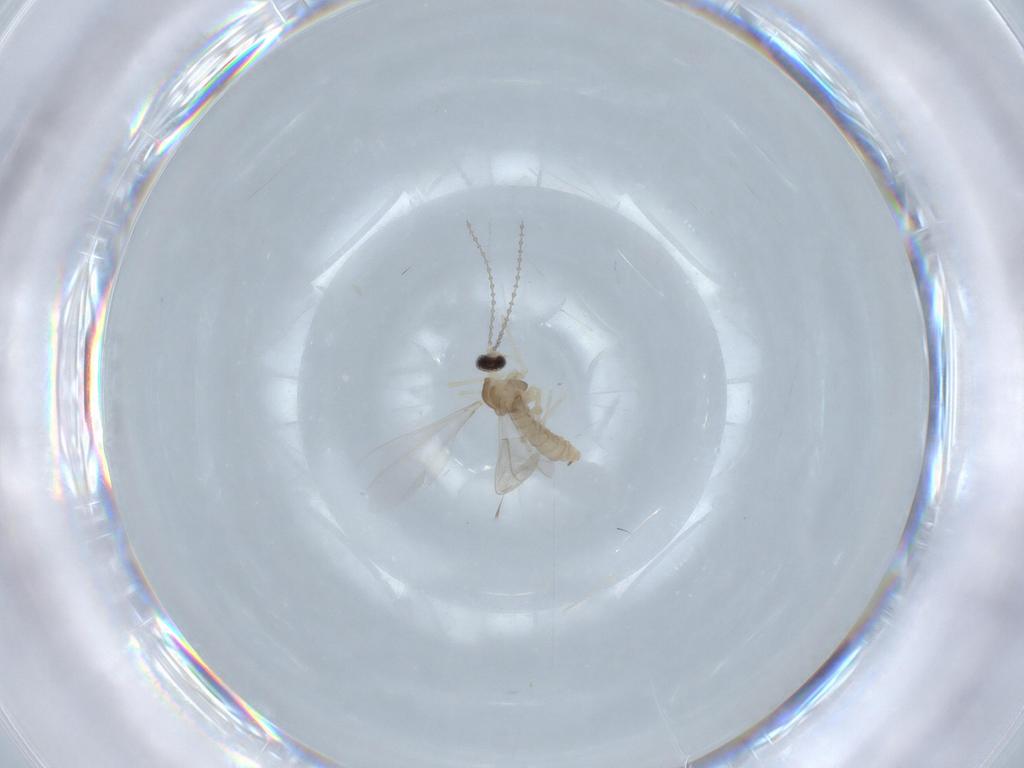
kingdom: Animalia
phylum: Arthropoda
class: Insecta
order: Diptera
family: Cecidomyiidae
